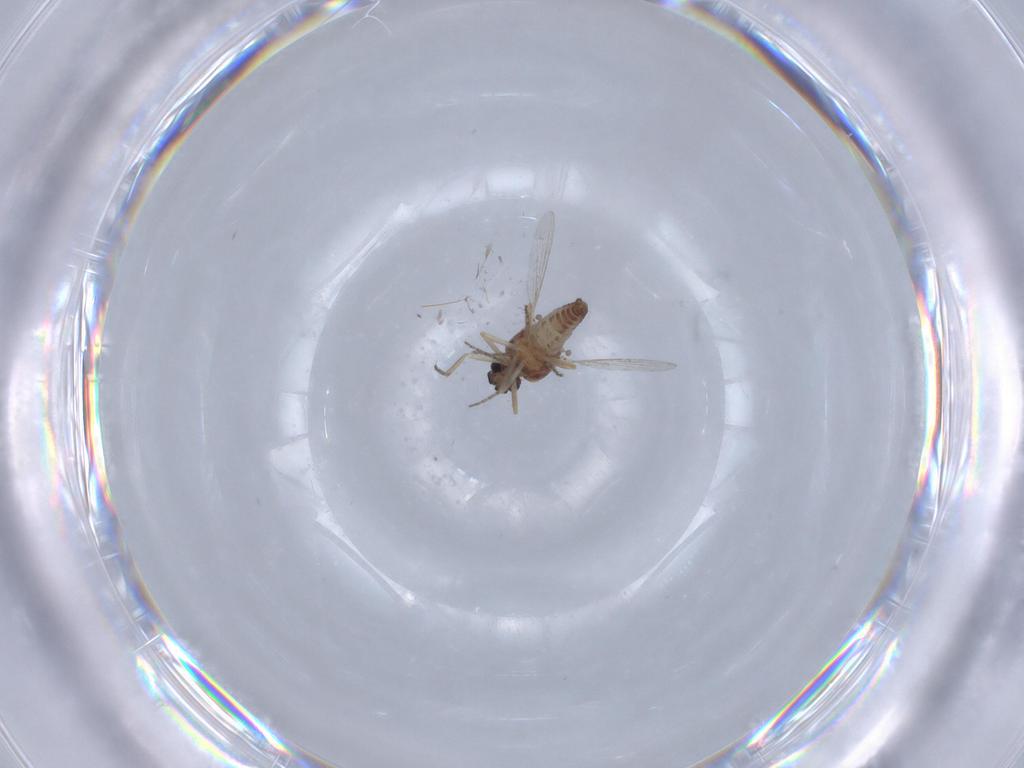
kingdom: Animalia
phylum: Arthropoda
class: Insecta
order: Diptera
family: Ceratopogonidae
